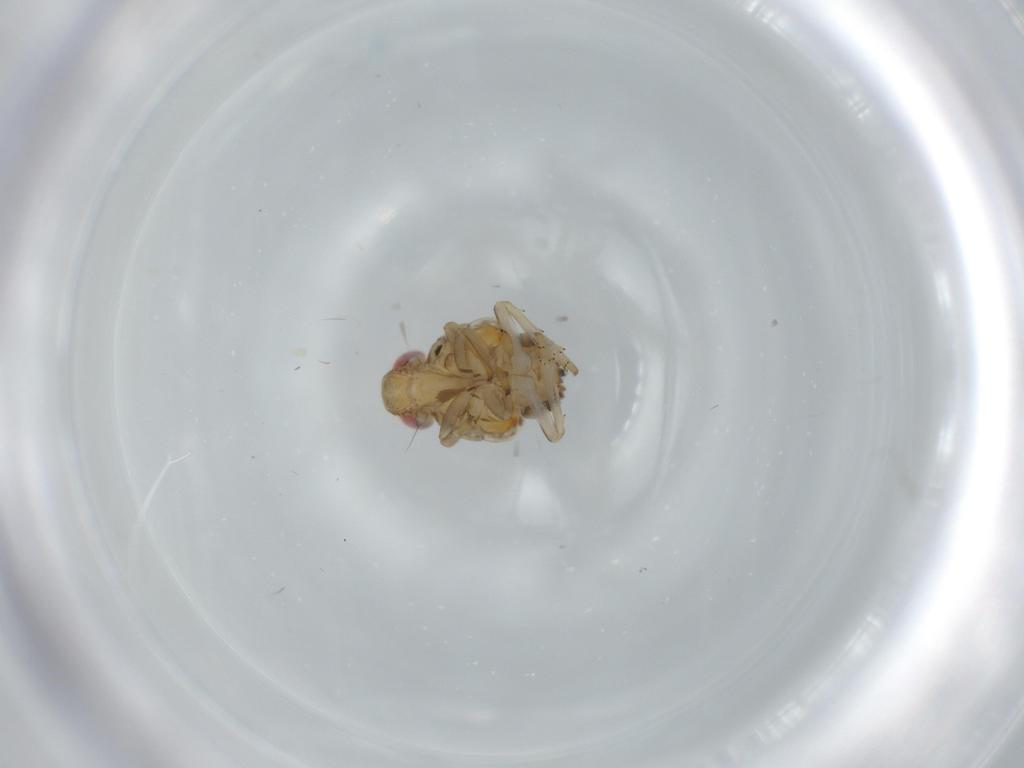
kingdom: Animalia
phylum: Arthropoda
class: Insecta
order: Hemiptera
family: Issidae
